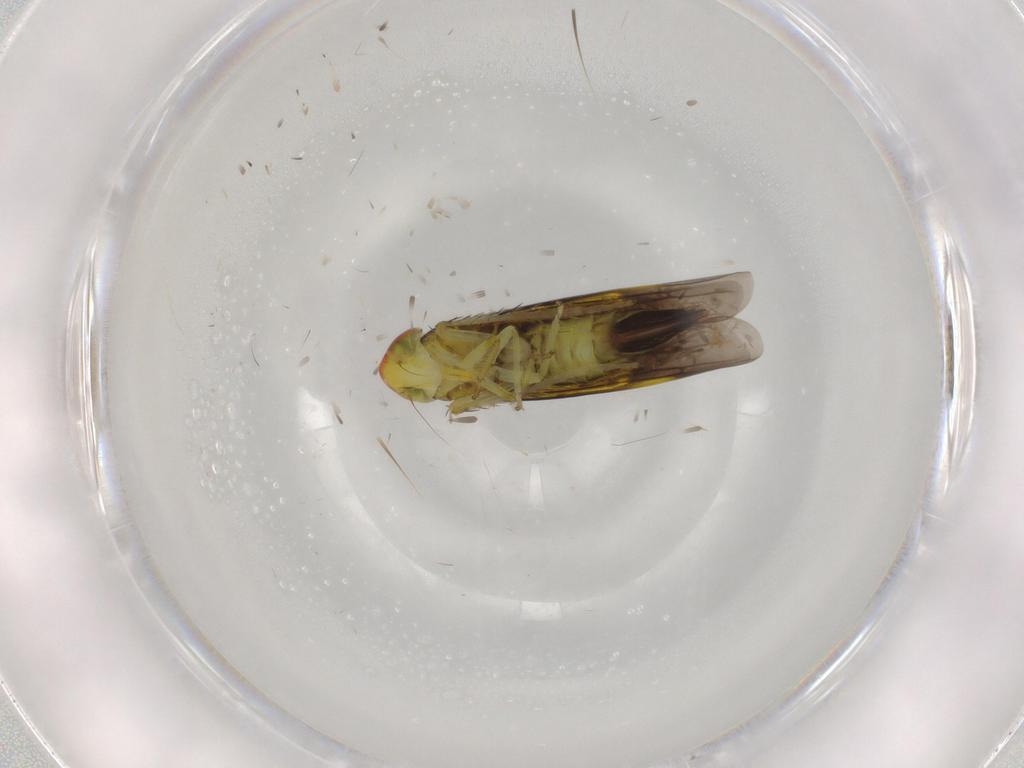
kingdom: Animalia
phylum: Arthropoda
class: Insecta
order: Hemiptera
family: Cicadellidae
